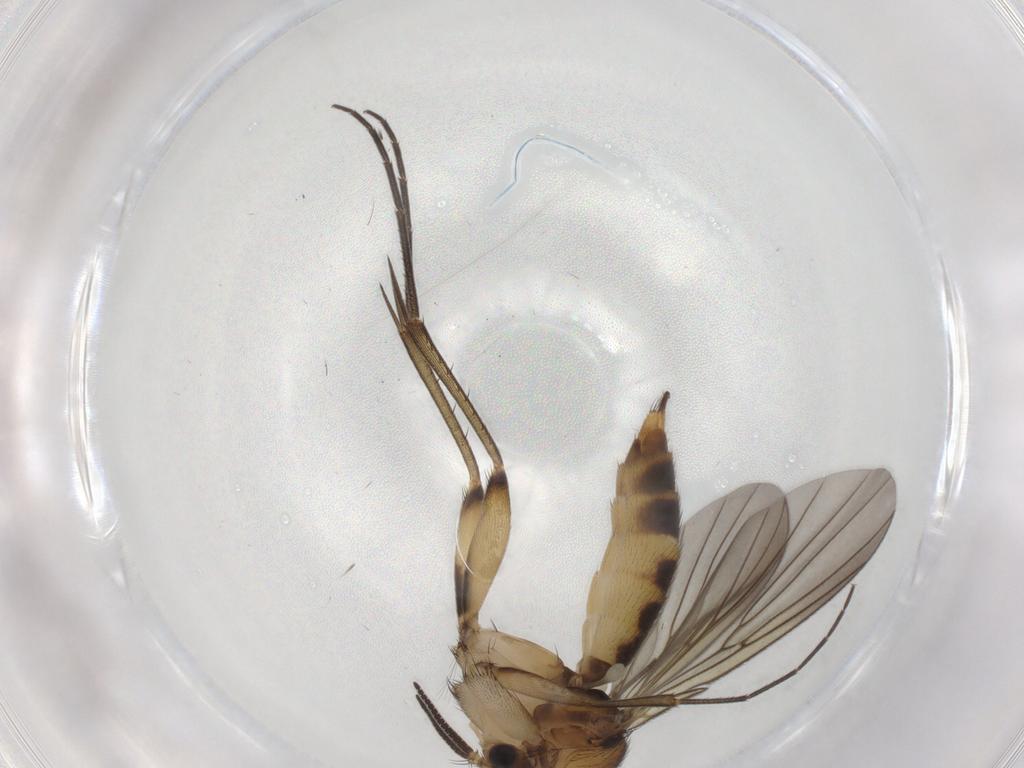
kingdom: Animalia
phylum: Arthropoda
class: Insecta
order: Diptera
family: Mycetophilidae
